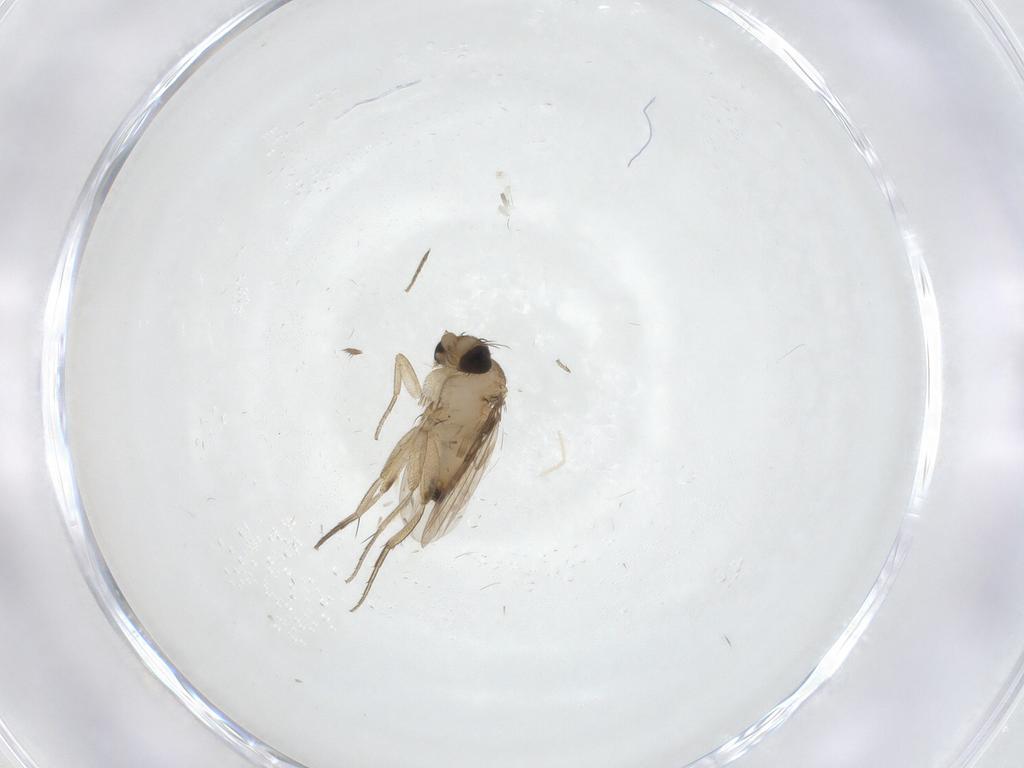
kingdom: Animalia
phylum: Arthropoda
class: Insecta
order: Diptera
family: Phoridae
